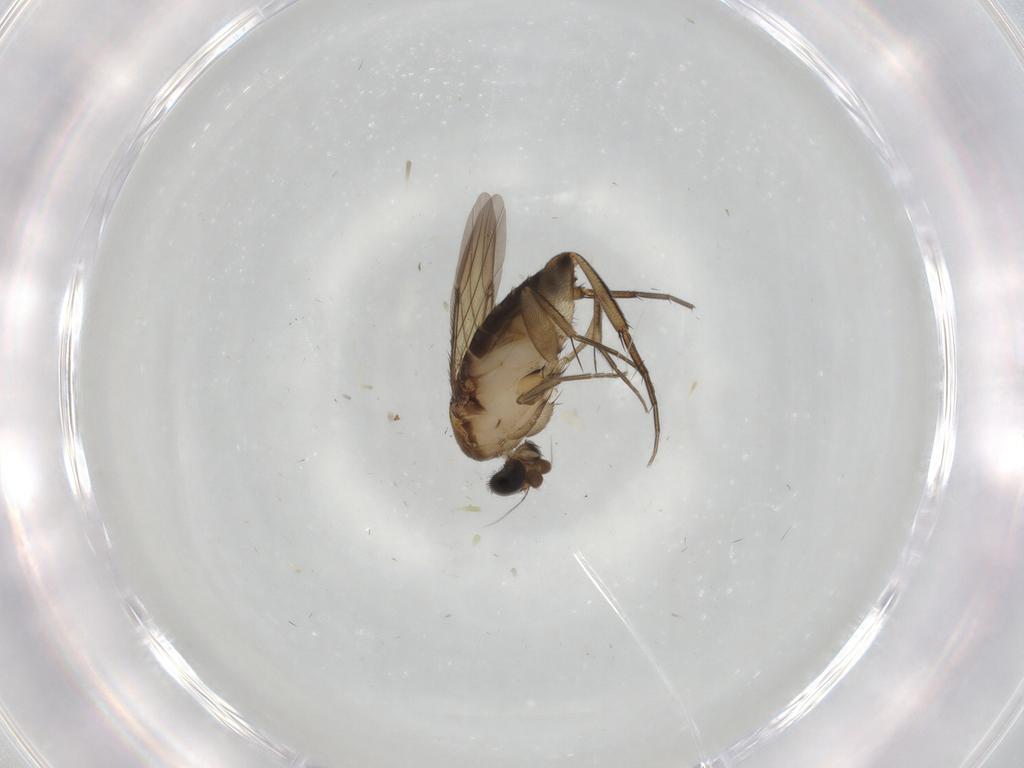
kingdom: Animalia
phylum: Arthropoda
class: Insecta
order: Diptera
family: Phoridae
